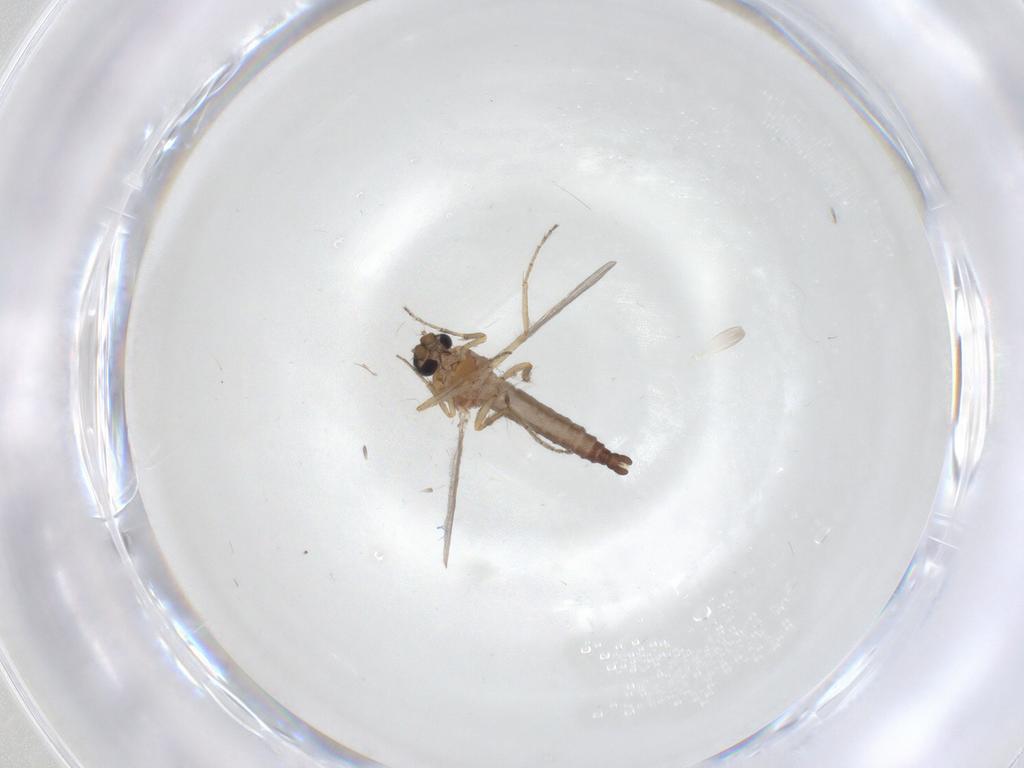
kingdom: Animalia
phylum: Arthropoda
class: Insecta
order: Diptera
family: Ceratopogonidae
